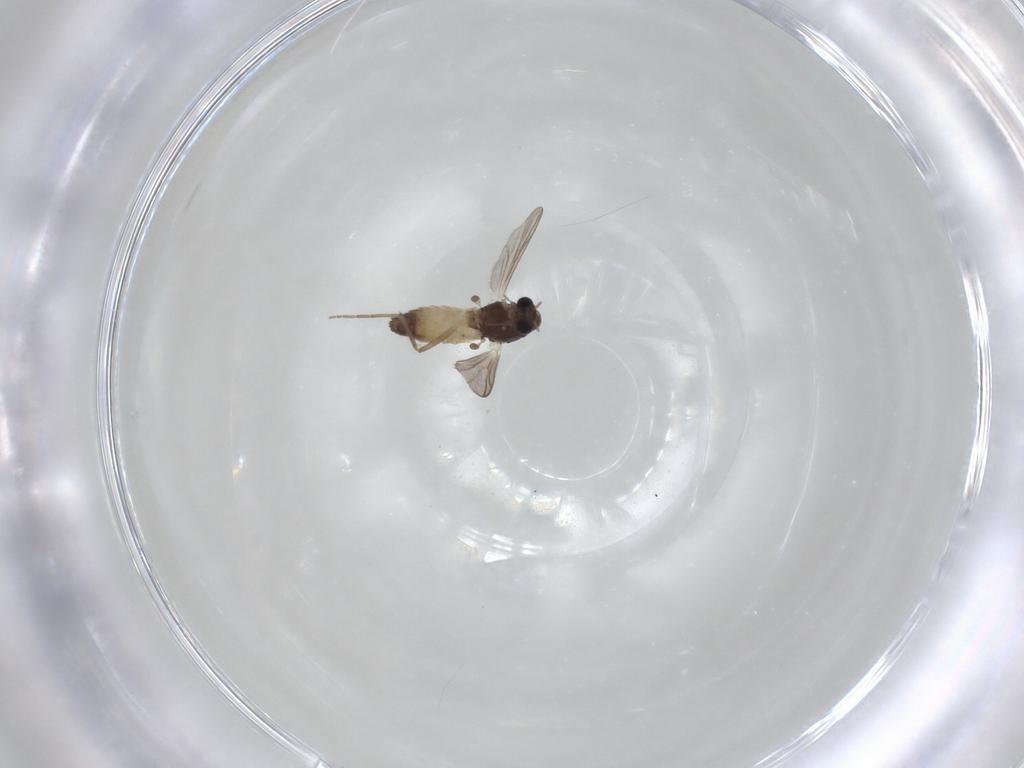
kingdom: Animalia
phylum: Arthropoda
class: Insecta
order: Diptera
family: Chironomidae
